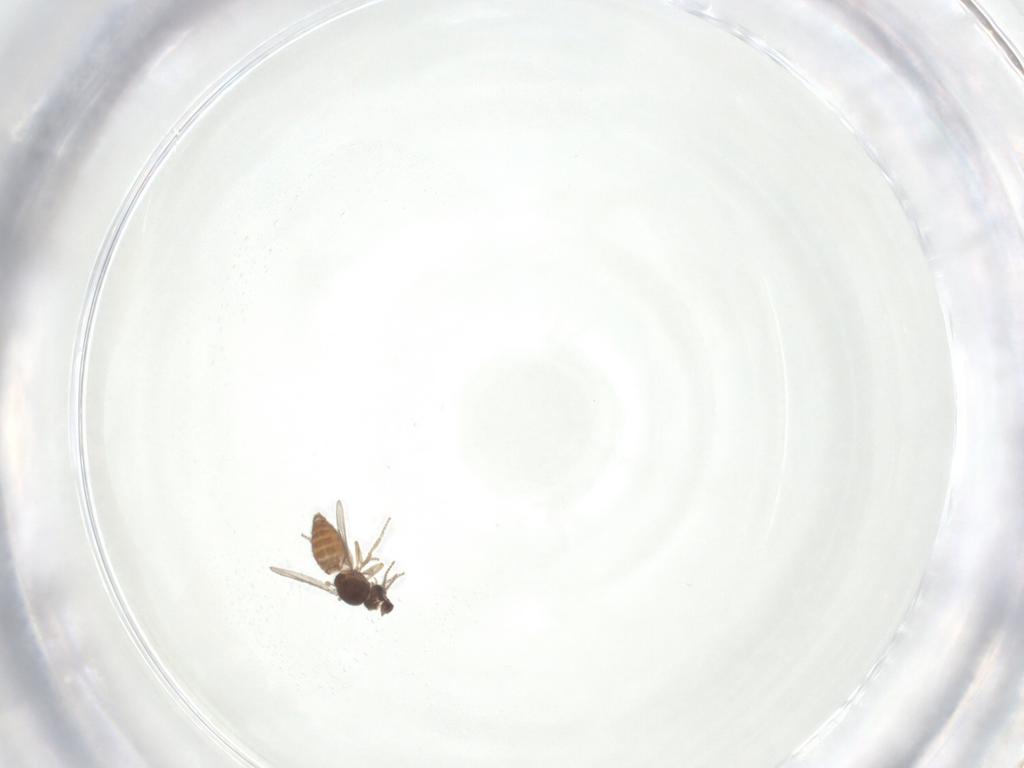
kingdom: Animalia
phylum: Arthropoda
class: Insecta
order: Diptera
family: Ceratopogonidae
